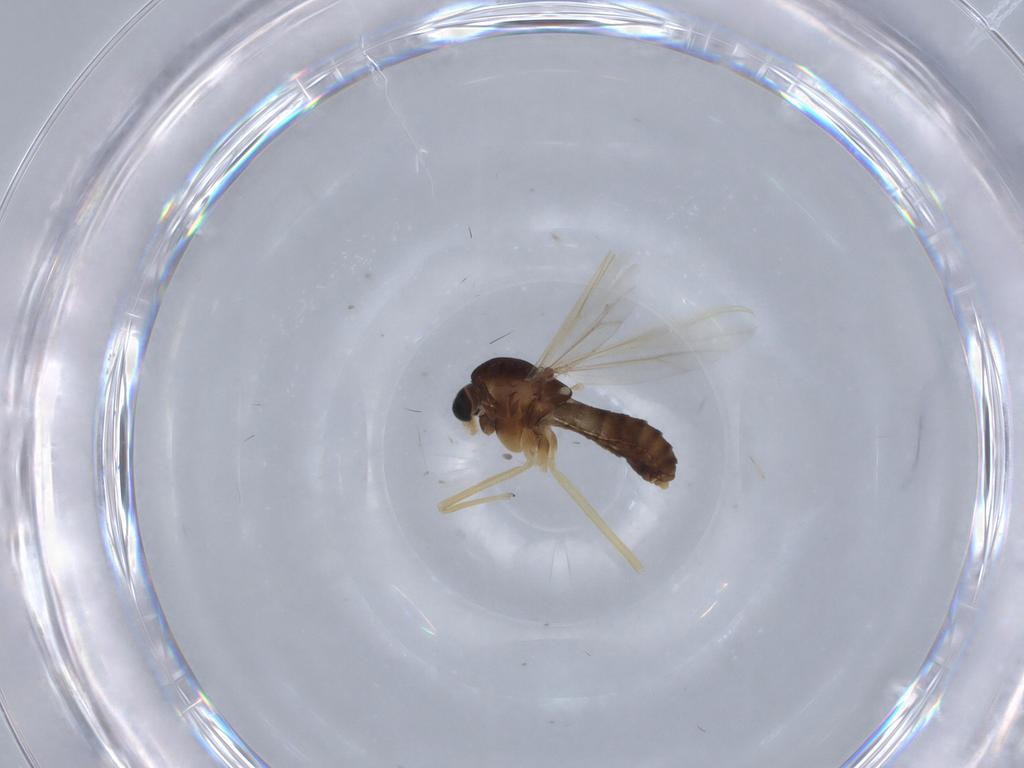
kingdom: Animalia
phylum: Arthropoda
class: Insecta
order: Diptera
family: Chironomidae
